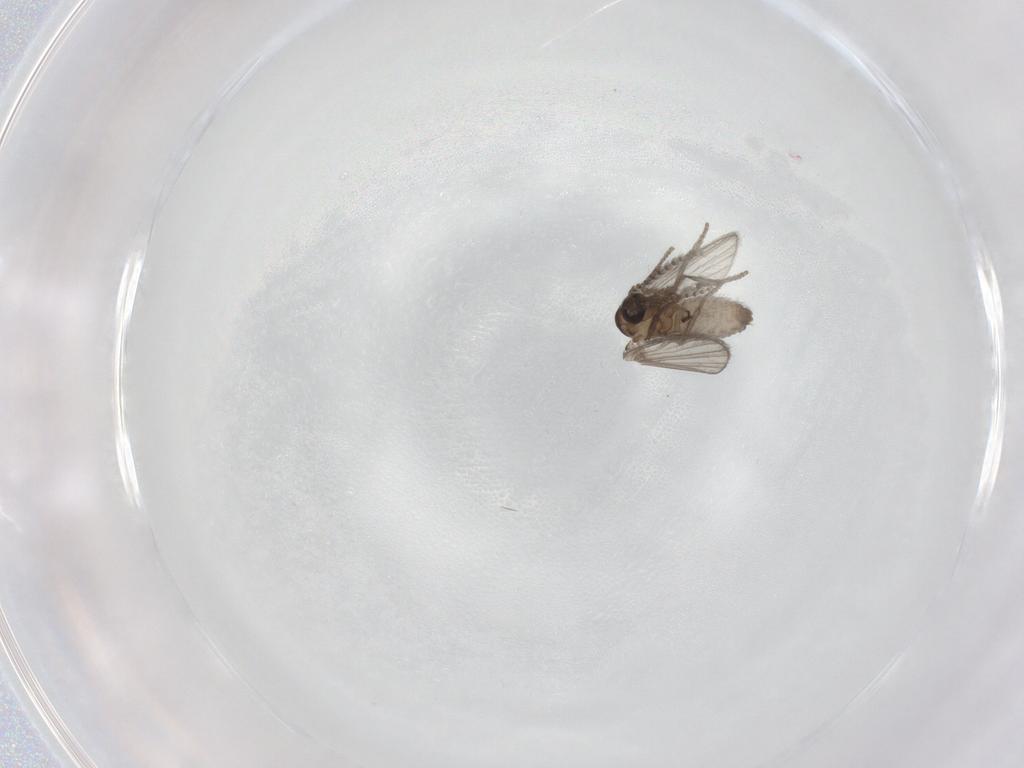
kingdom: Animalia
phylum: Arthropoda
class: Insecta
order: Diptera
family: Psychodidae
